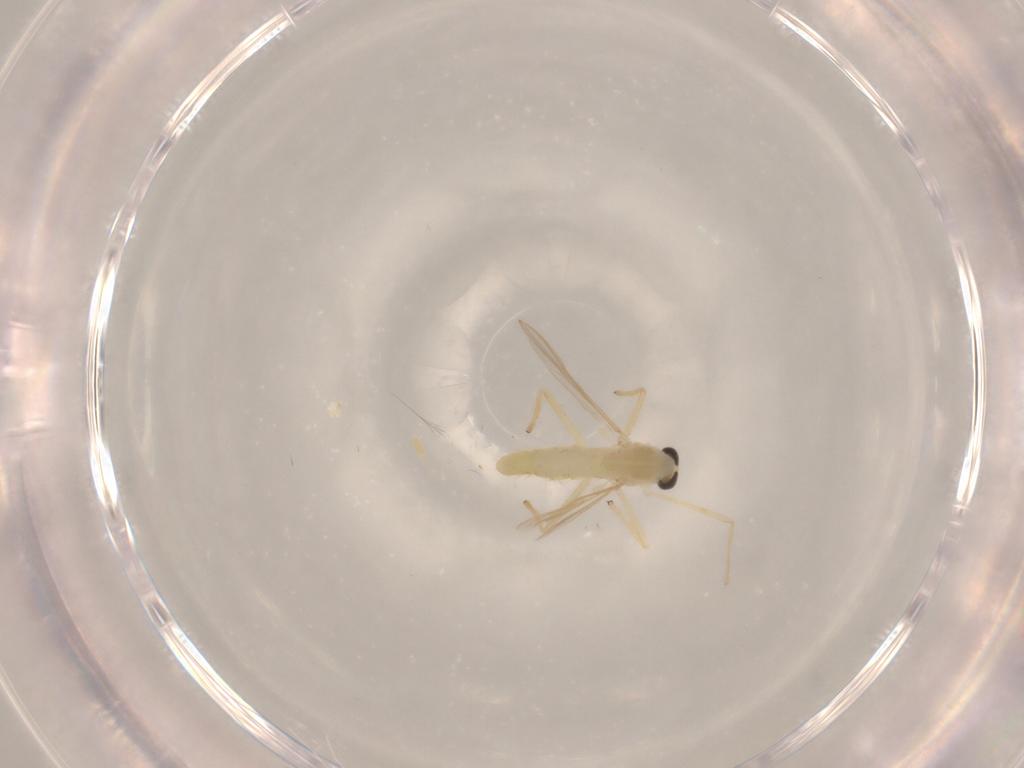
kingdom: Animalia
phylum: Arthropoda
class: Insecta
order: Diptera
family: Chironomidae
